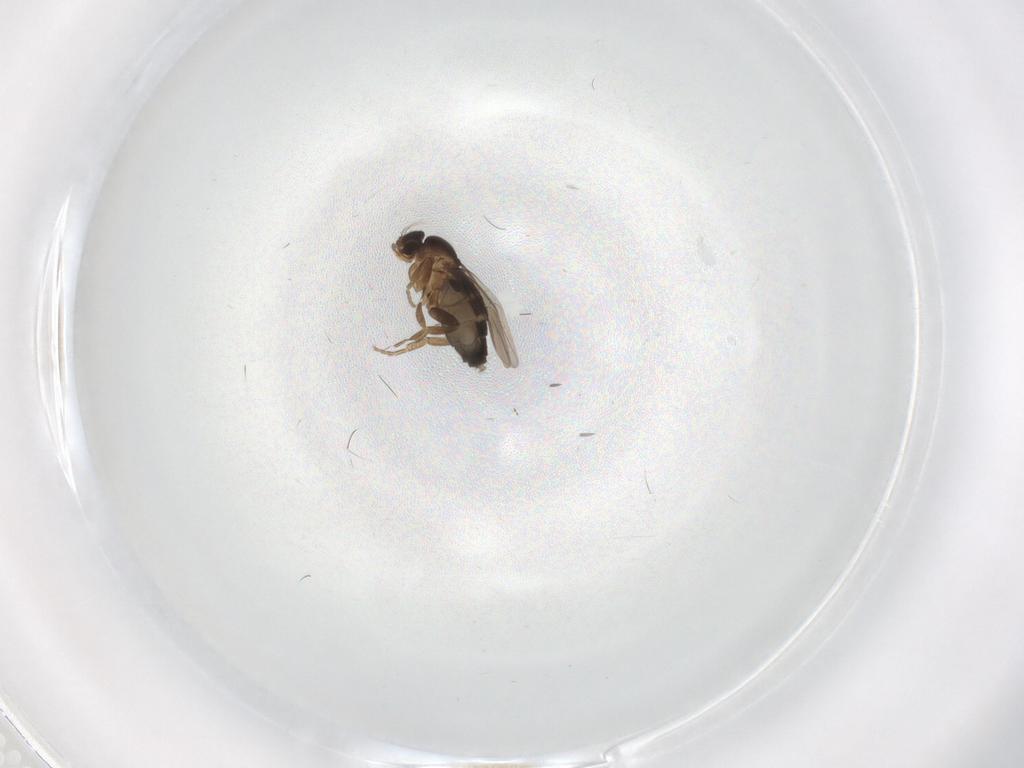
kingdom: Animalia
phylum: Arthropoda
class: Insecta
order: Diptera
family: Phoridae
